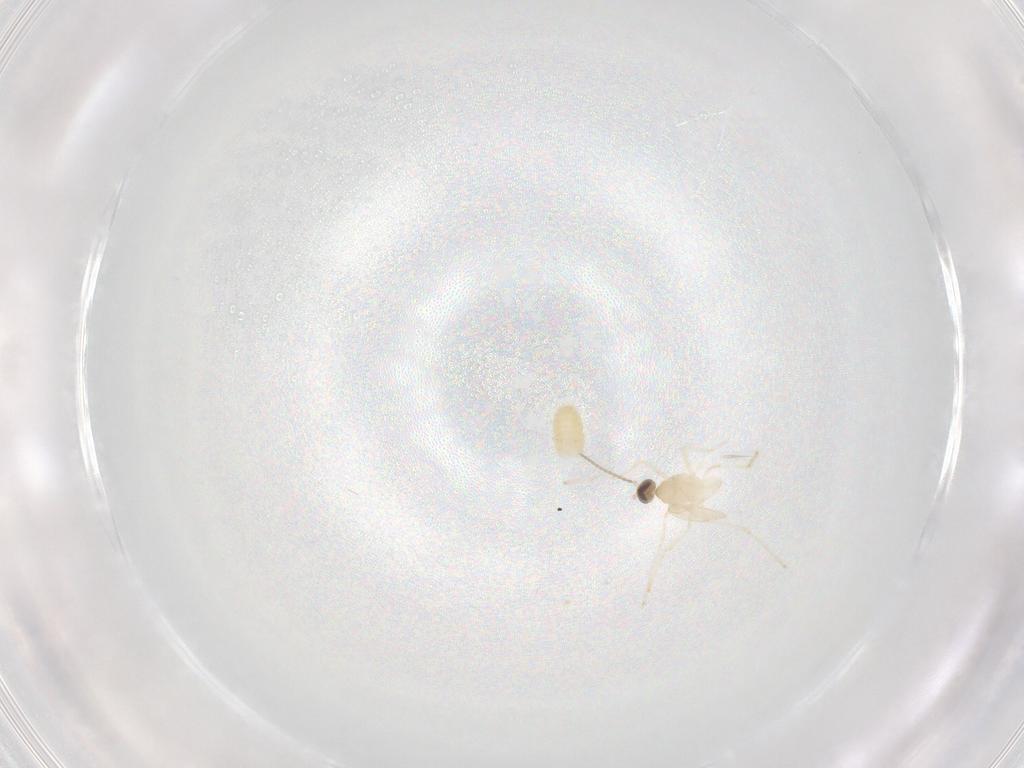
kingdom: Animalia
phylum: Arthropoda
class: Insecta
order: Diptera
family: Cecidomyiidae
